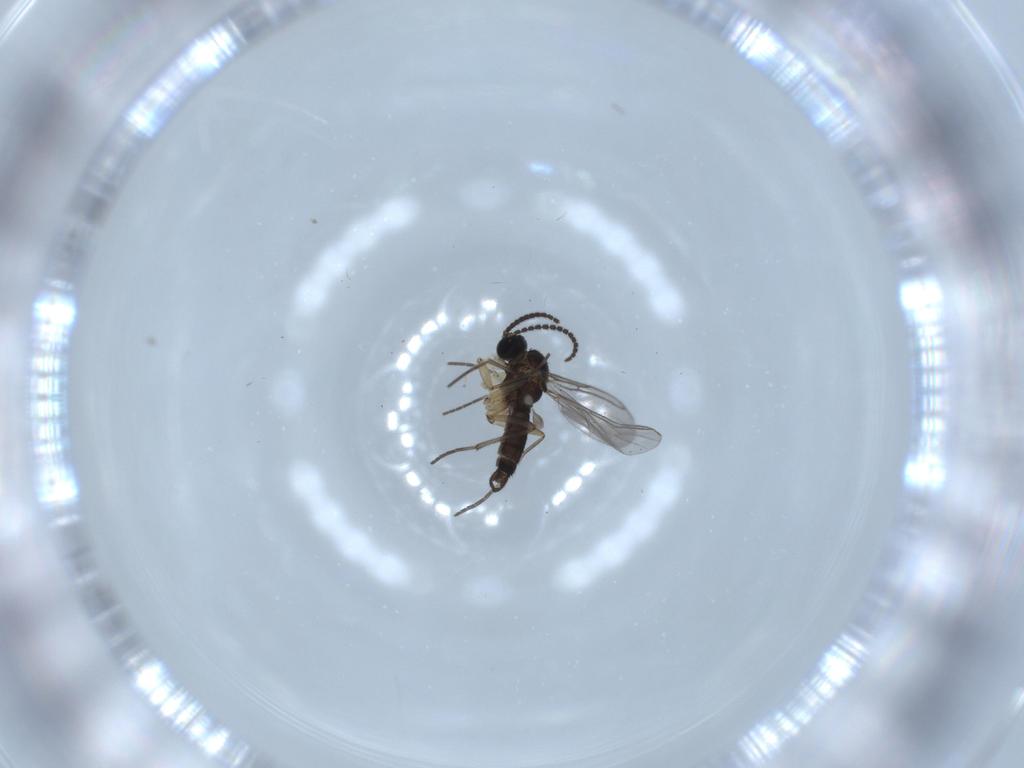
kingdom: Animalia
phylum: Arthropoda
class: Insecta
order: Diptera
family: Sciaridae
